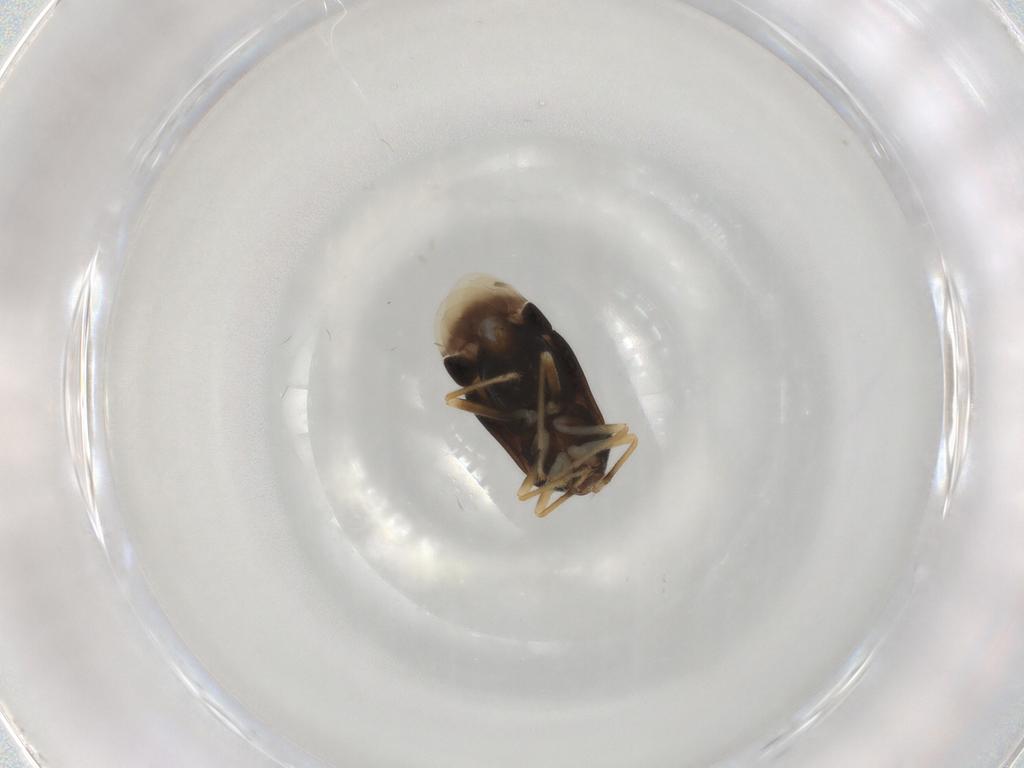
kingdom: Animalia
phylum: Arthropoda
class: Insecta
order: Hemiptera
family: Miridae
